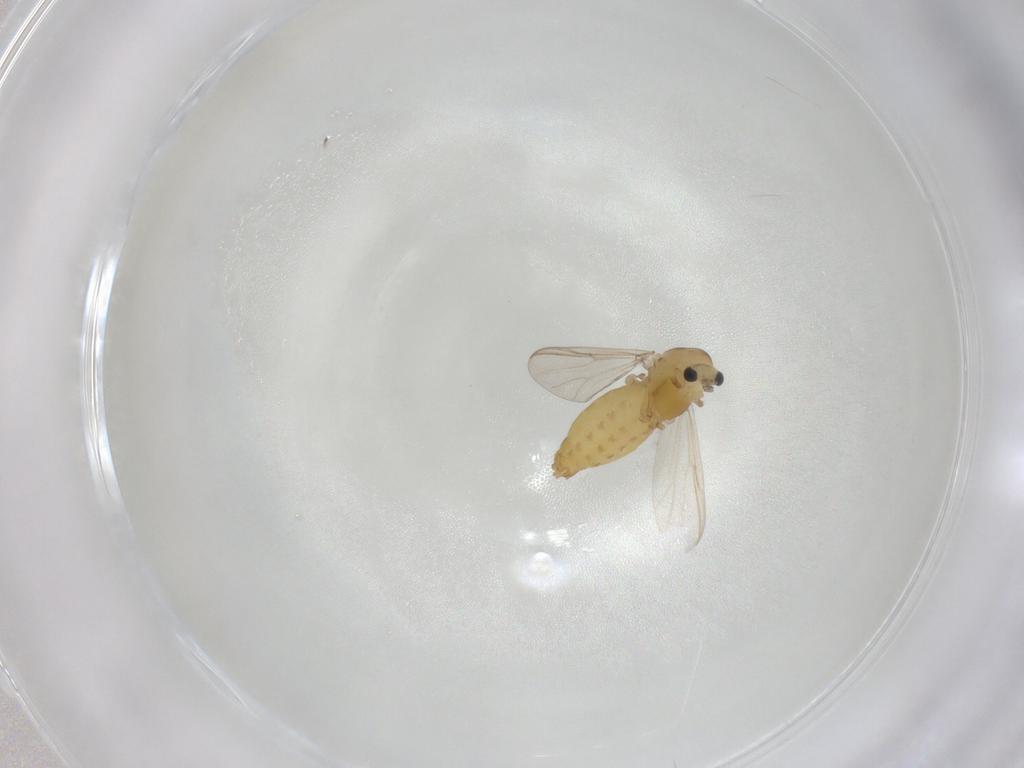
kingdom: Animalia
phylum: Arthropoda
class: Insecta
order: Diptera
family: Chironomidae
